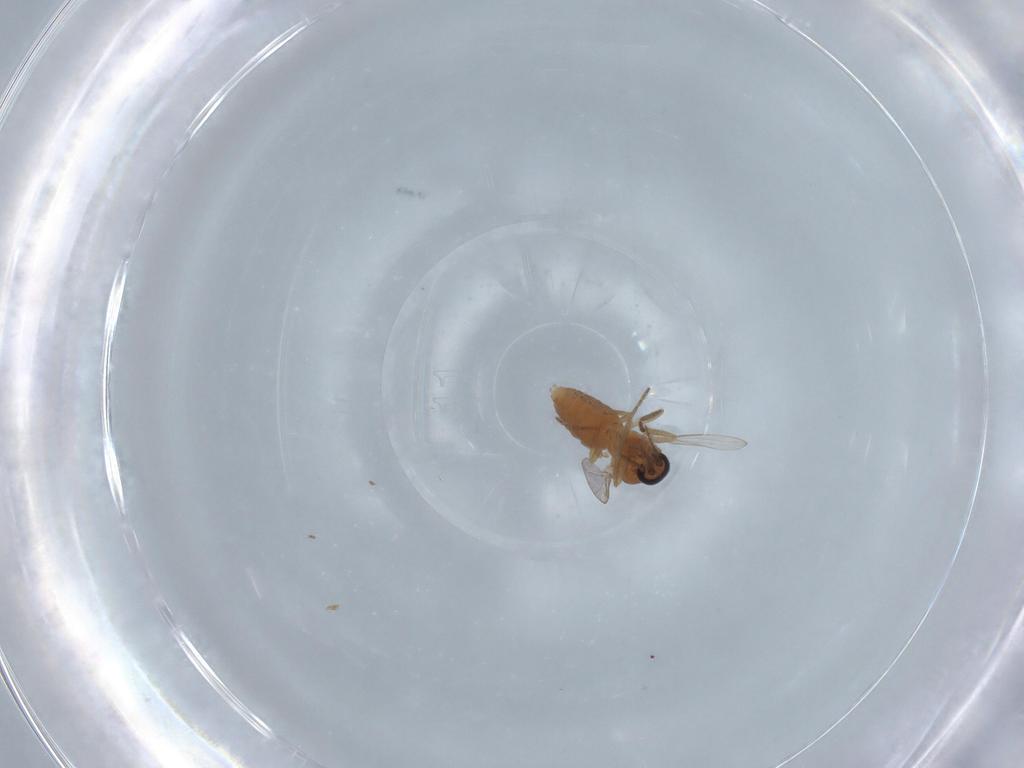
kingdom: Animalia
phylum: Arthropoda
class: Insecta
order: Diptera
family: Ceratopogonidae
